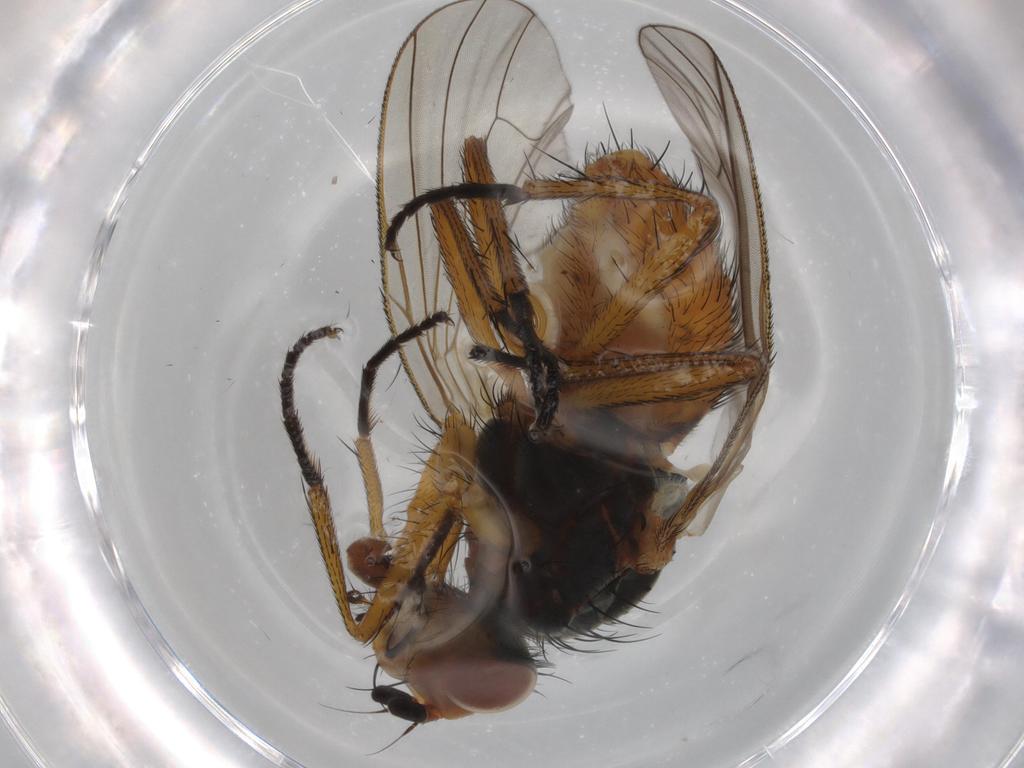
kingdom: Animalia
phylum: Arthropoda
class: Insecta
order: Diptera
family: Anthomyiidae
